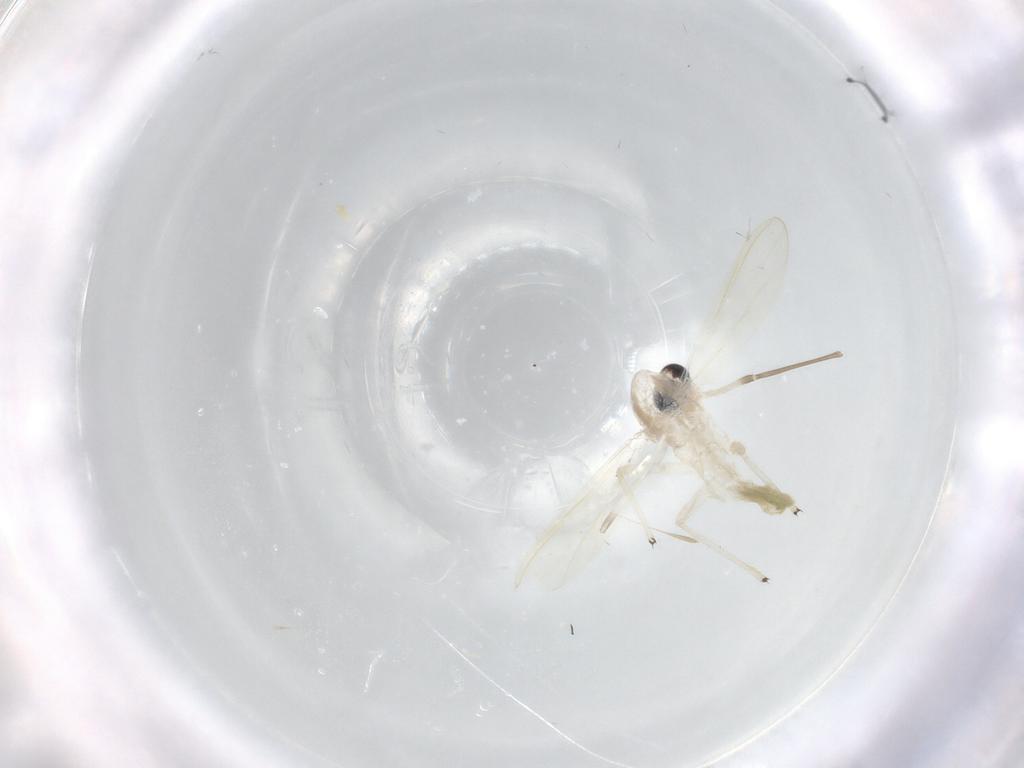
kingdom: Animalia
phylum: Arthropoda
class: Insecta
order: Diptera
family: Chironomidae
